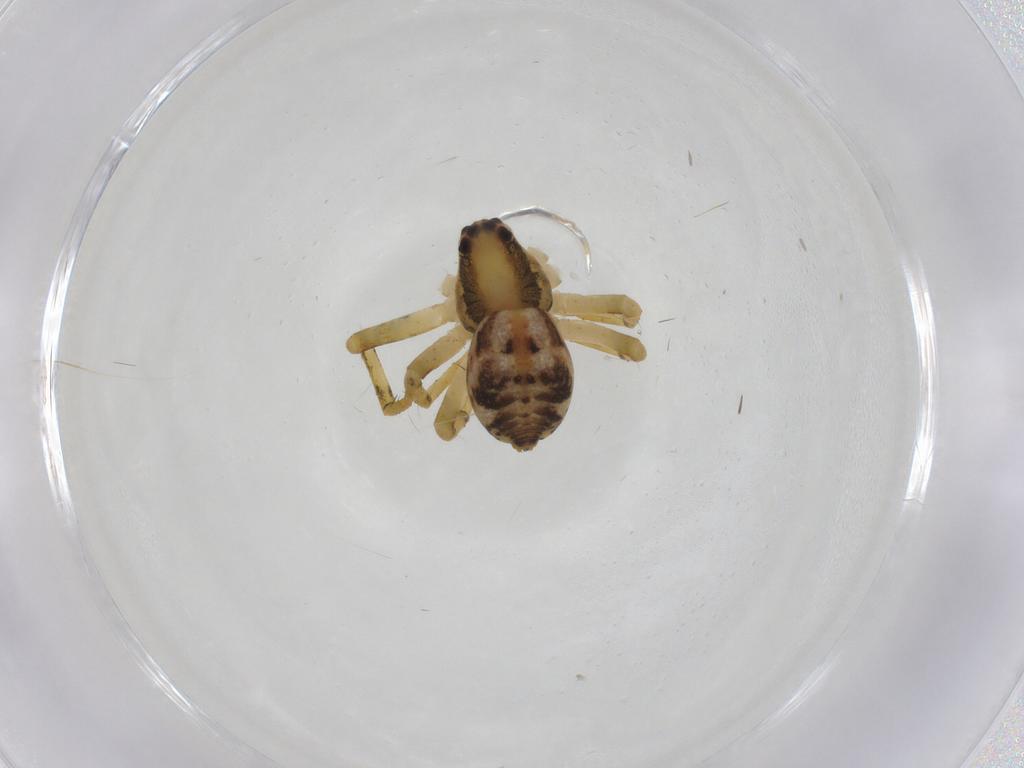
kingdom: Animalia
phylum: Arthropoda
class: Arachnida
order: Araneae
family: Pisauridae
